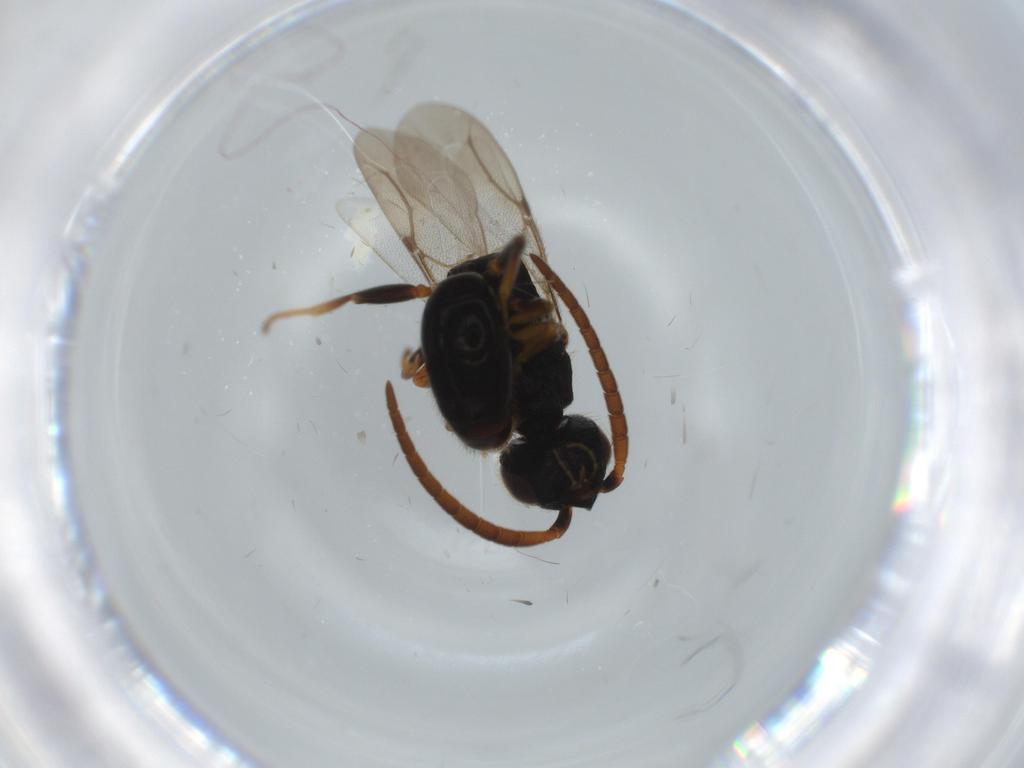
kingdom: Animalia
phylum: Arthropoda
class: Insecta
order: Hymenoptera
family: Bethylidae
